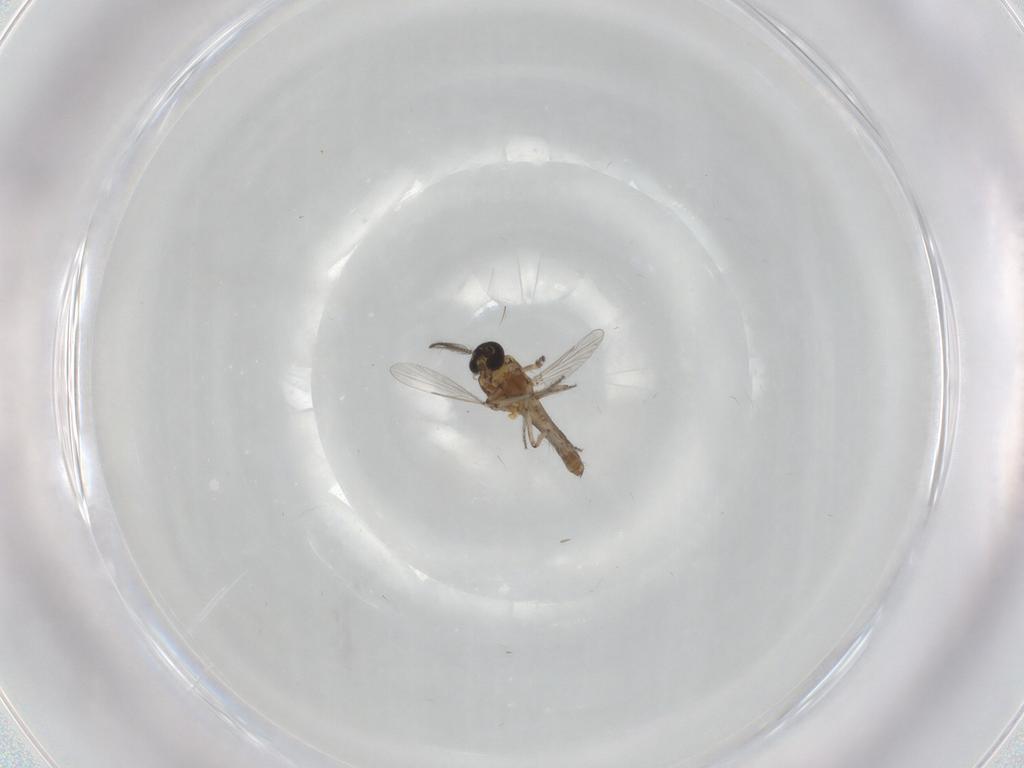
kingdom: Animalia
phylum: Arthropoda
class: Insecta
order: Diptera
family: Ceratopogonidae
